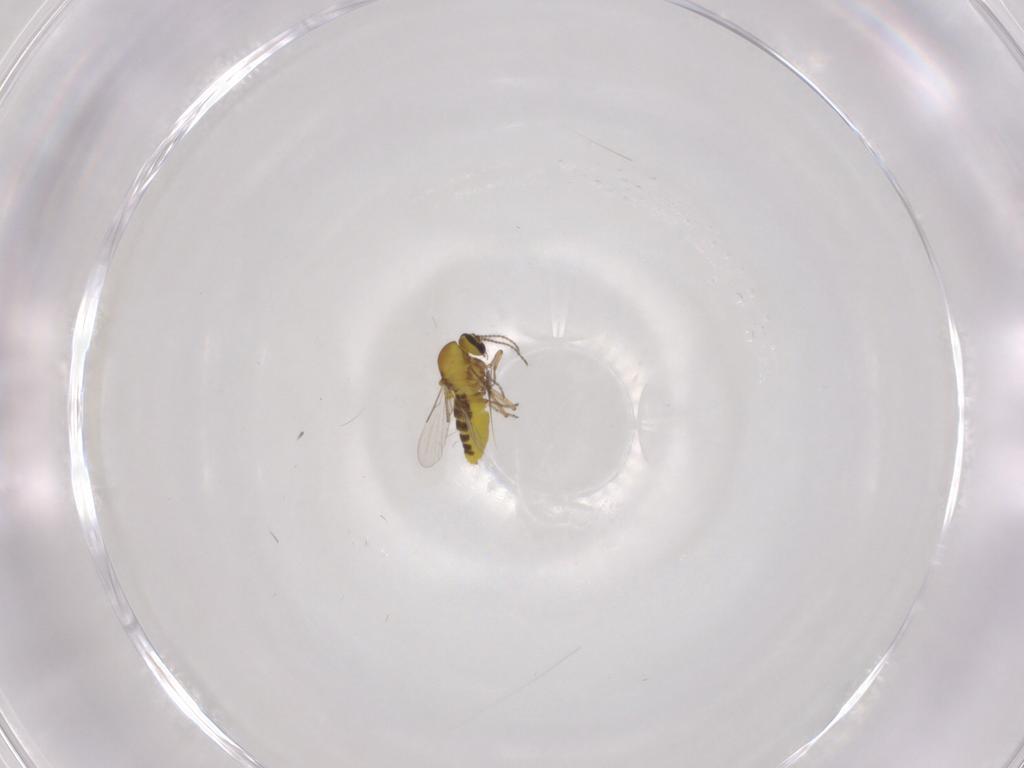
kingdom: Animalia
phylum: Arthropoda
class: Insecta
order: Diptera
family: Ceratopogonidae
